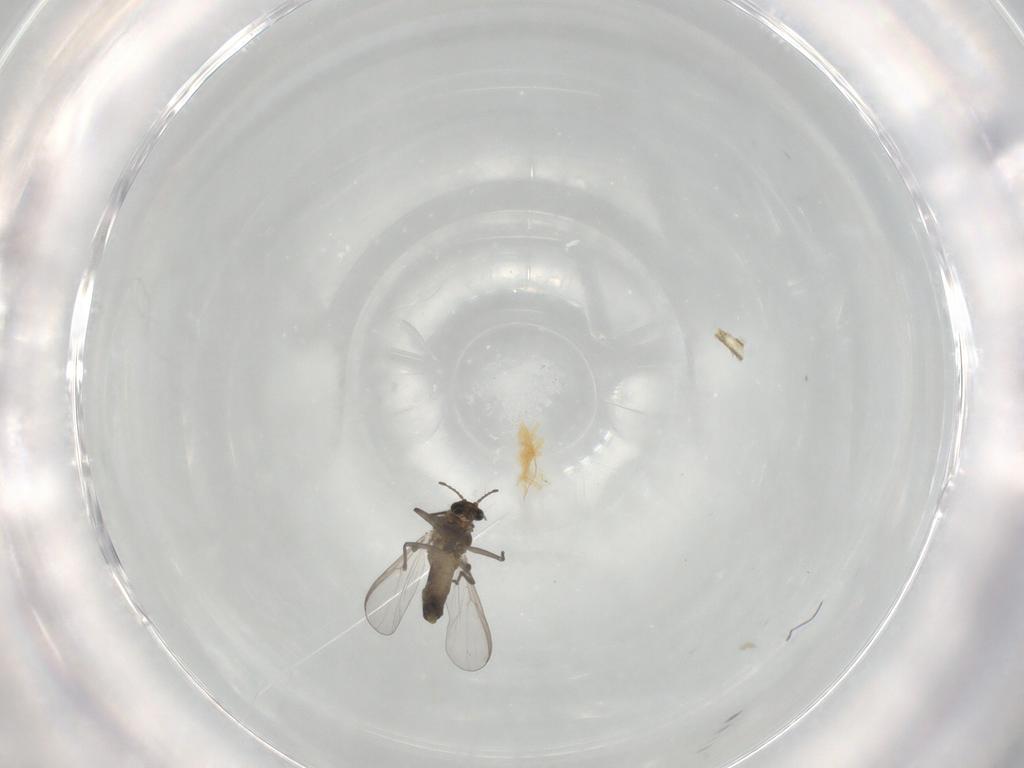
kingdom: Animalia
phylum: Arthropoda
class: Insecta
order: Diptera
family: Chironomidae
